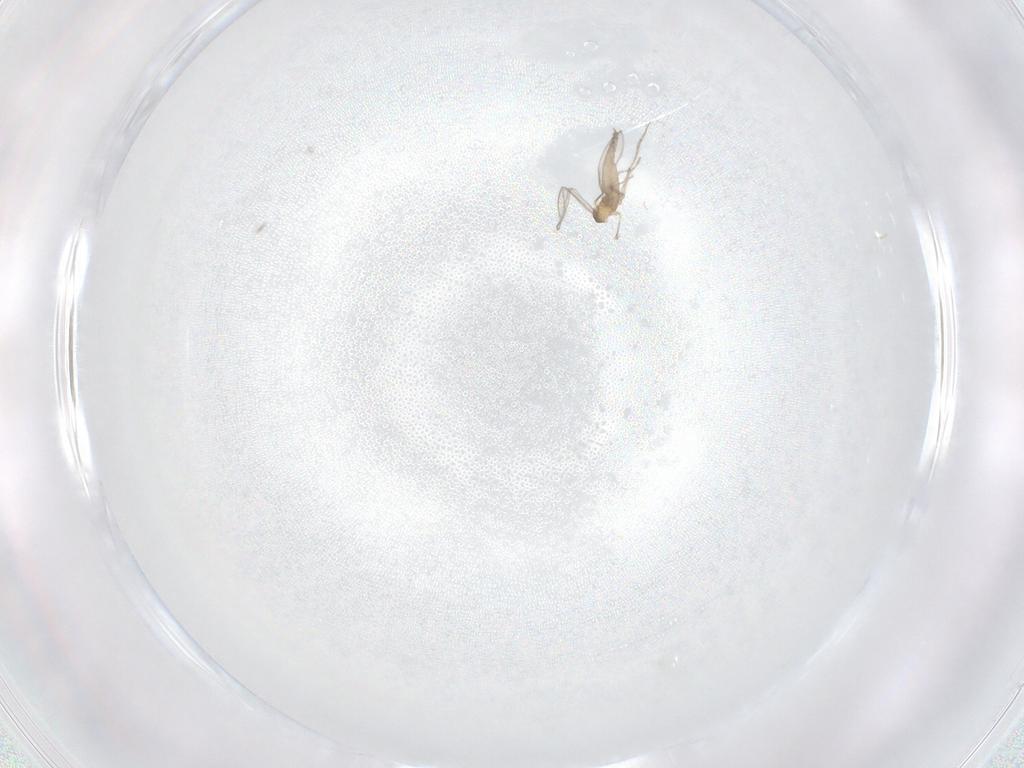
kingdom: Animalia
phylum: Arthropoda
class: Insecta
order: Diptera
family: Cecidomyiidae
